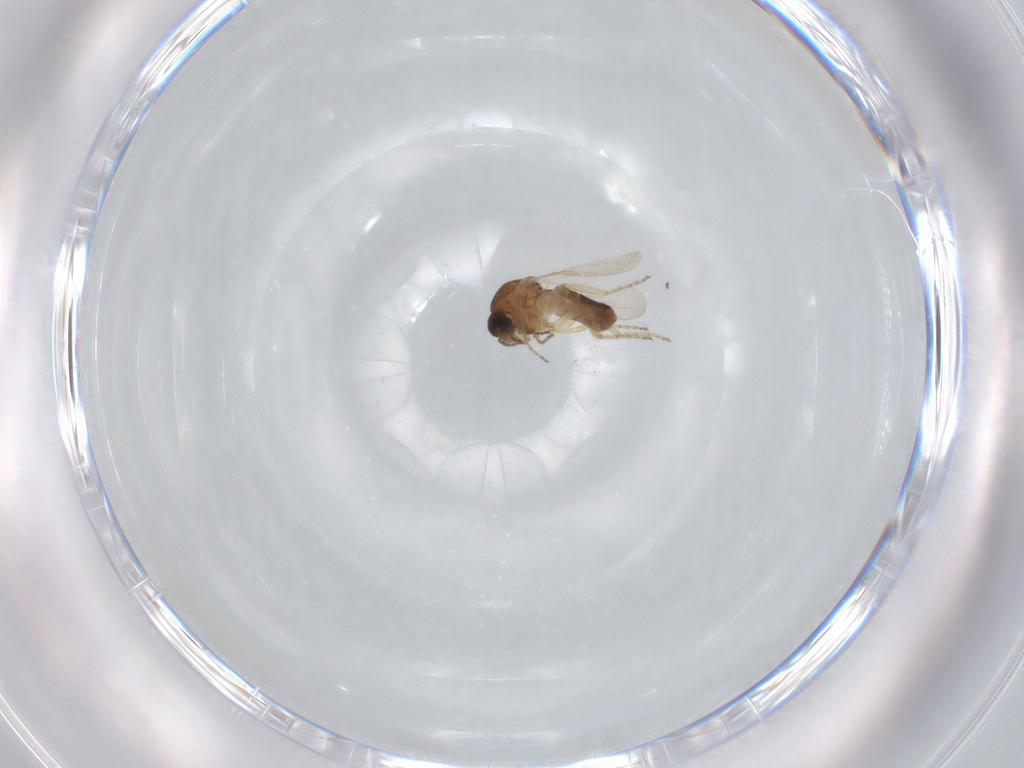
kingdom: Animalia
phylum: Arthropoda
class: Insecta
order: Diptera
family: Ceratopogonidae
